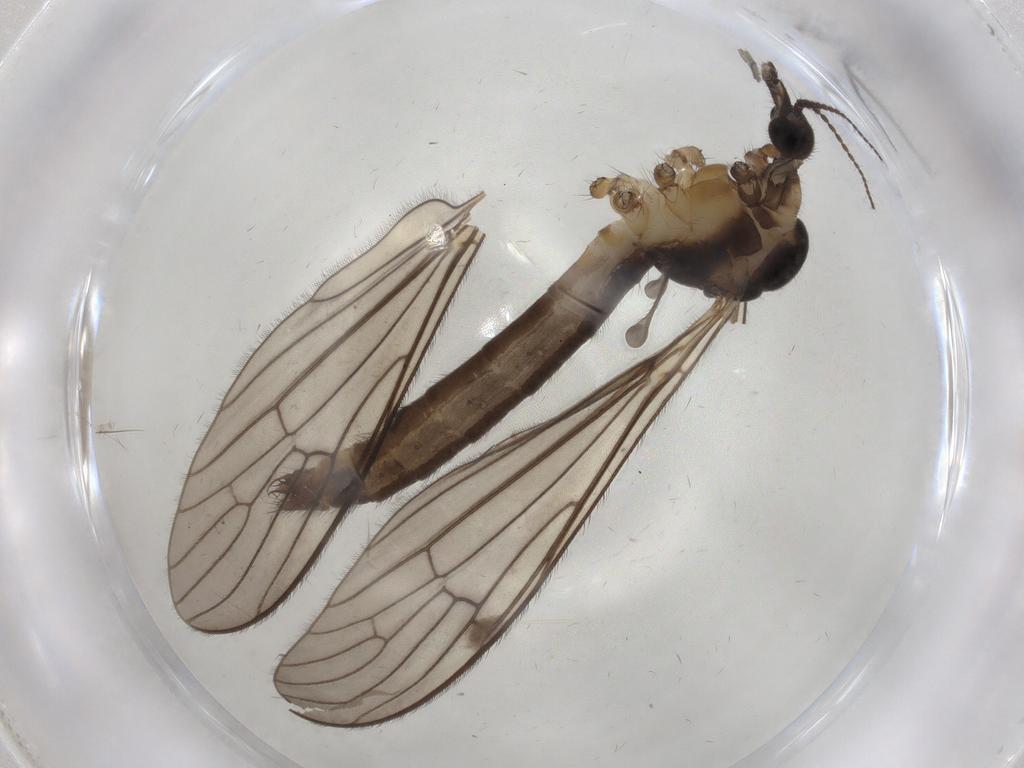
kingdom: Animalia
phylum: Arthropoda
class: Insecta
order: Diptera
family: Limoniidae
